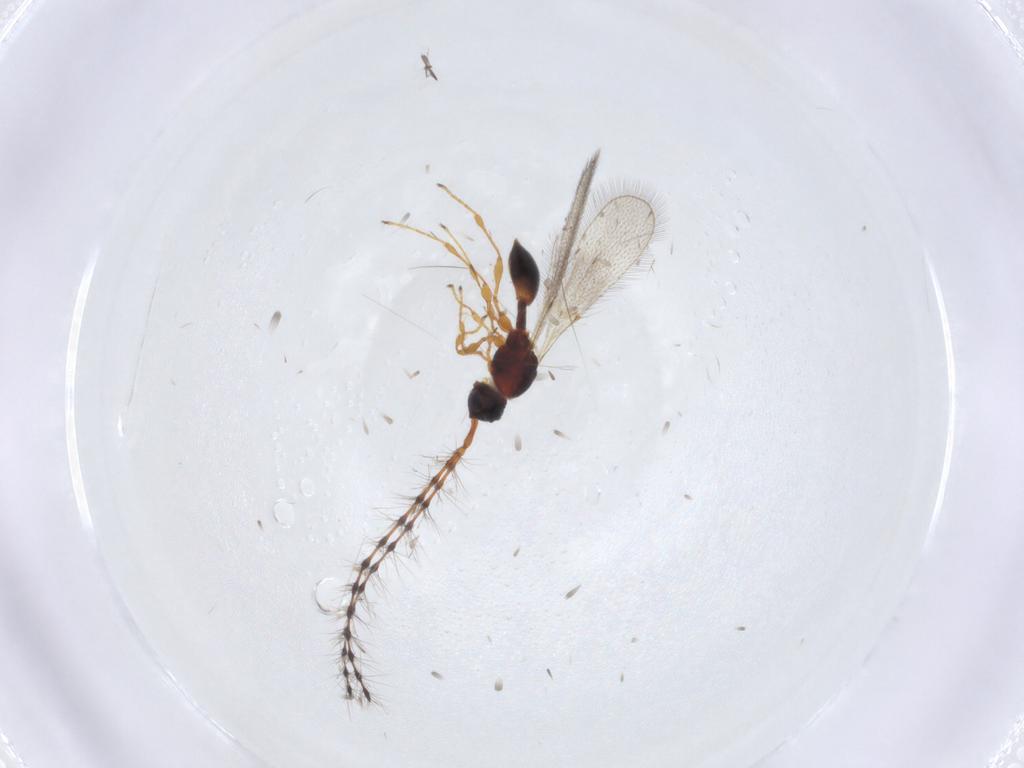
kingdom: Animalia
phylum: Arthropoda
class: Insecta
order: Hymenoptera
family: Diapriidae
